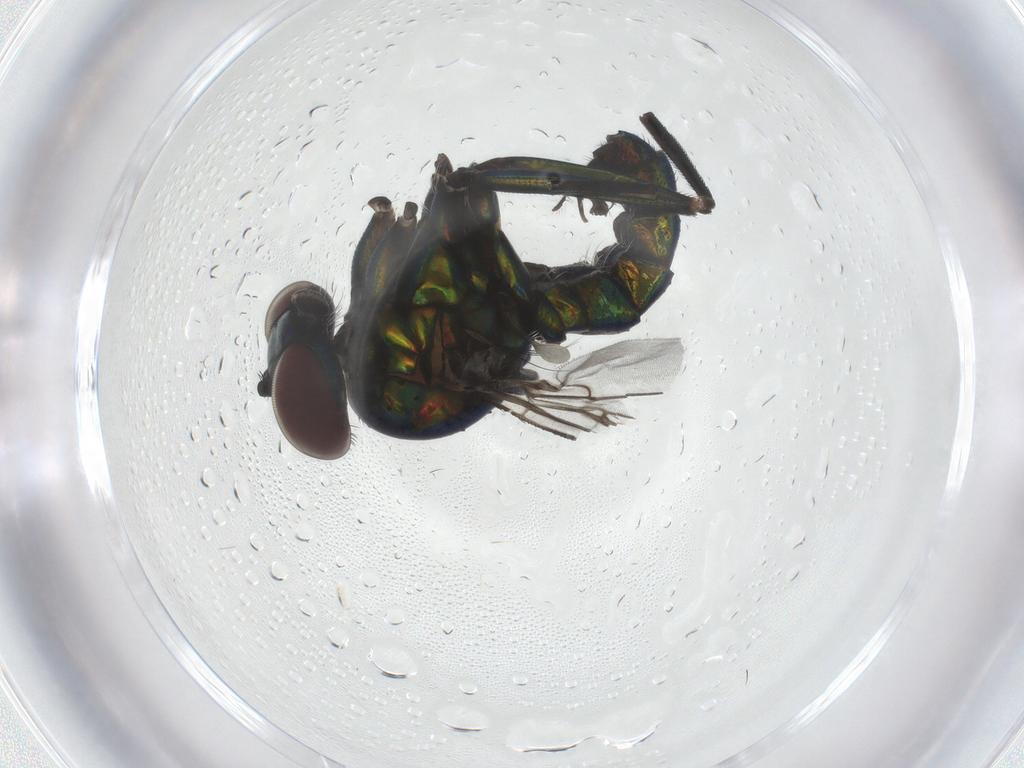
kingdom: Animalia
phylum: Arthropoda
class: Insecta
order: Diptera
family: Dolichopodidae
